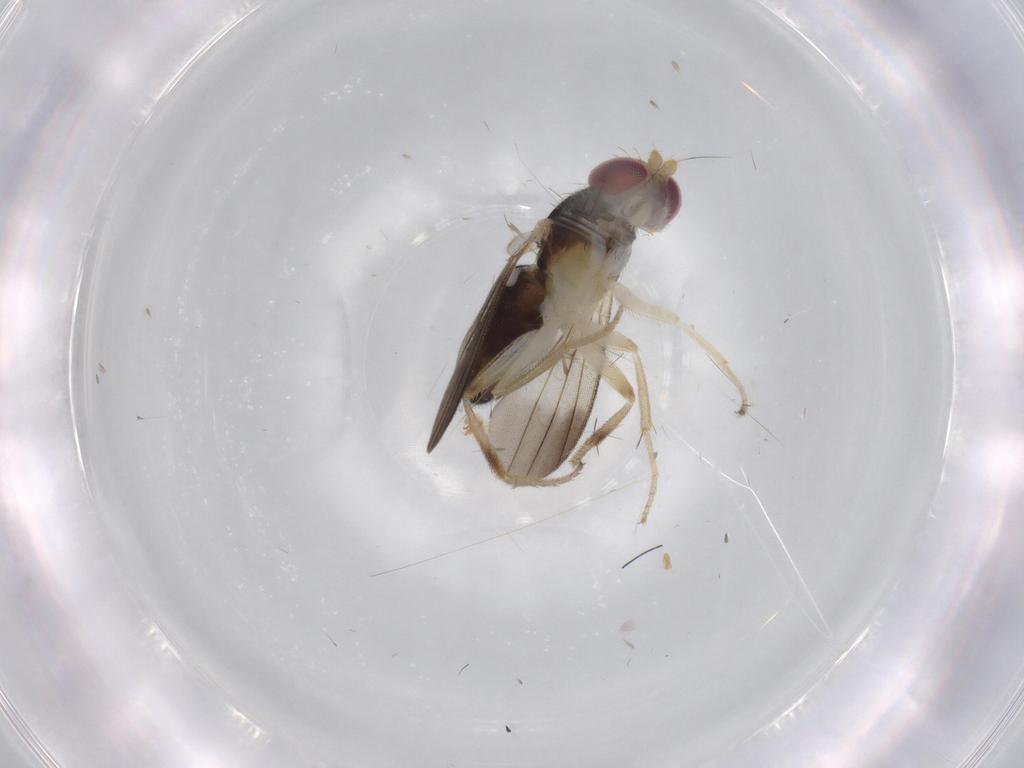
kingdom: Animalia
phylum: Arthropoda
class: Insecta
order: Diptera
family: Clusiidae
